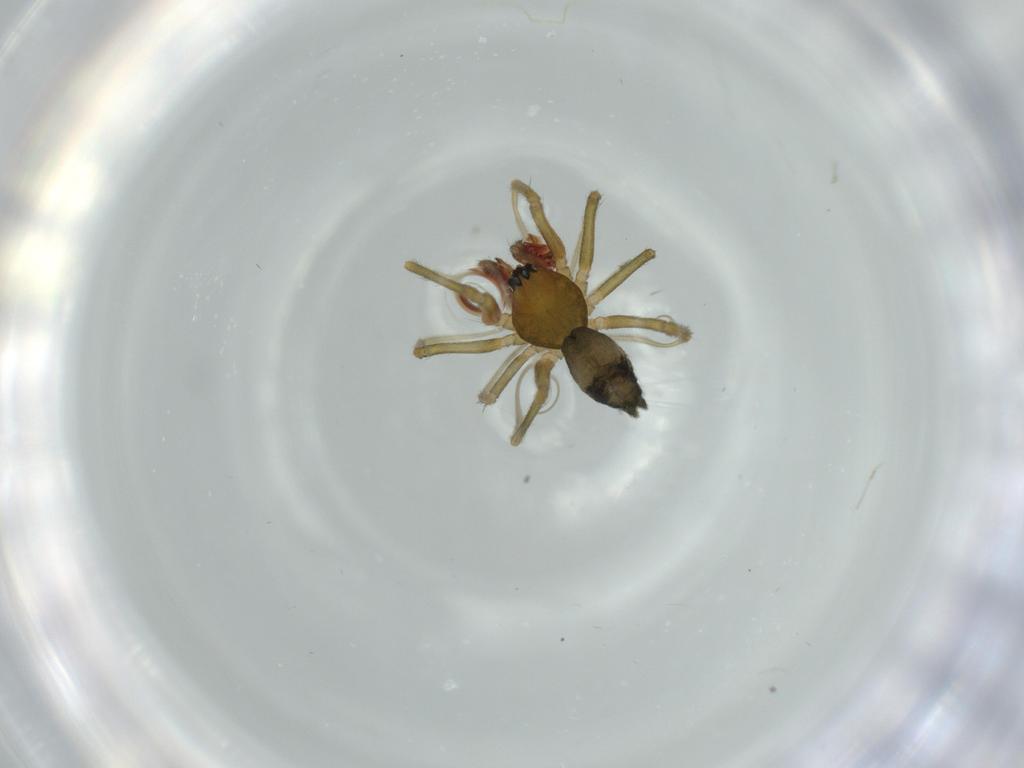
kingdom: Animalia
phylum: Arthropoda
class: Arachnida
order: Araneae
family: Linyphiidae
